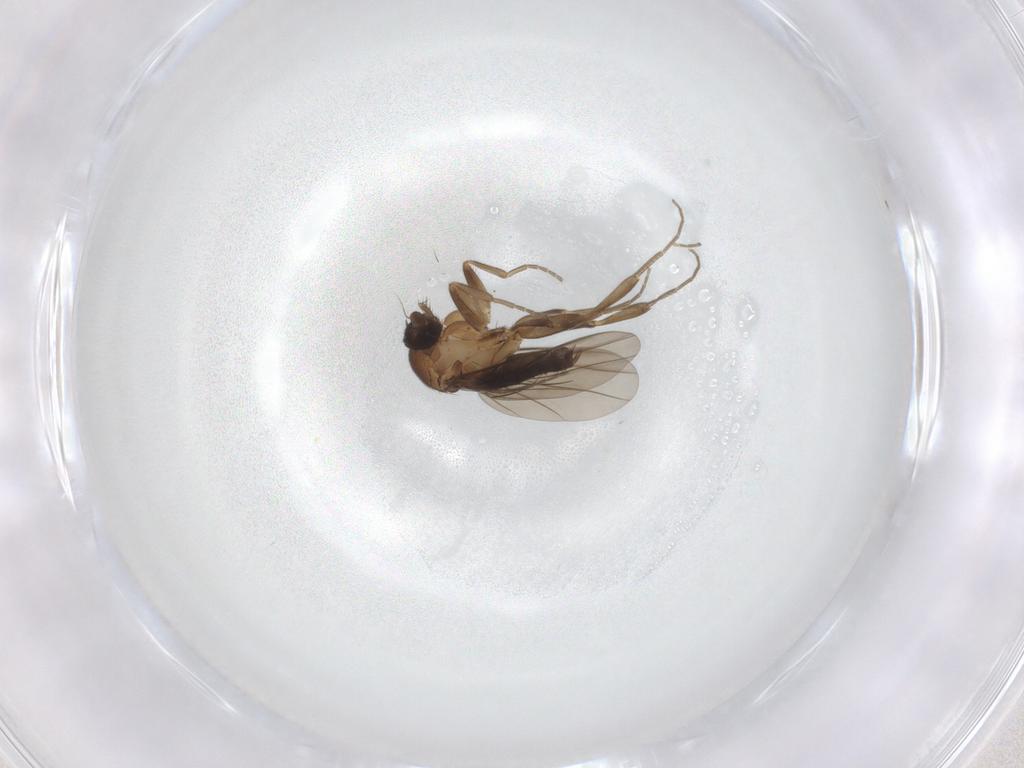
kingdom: Animalia
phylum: Arthropoda
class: Insecta
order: Diptera
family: Phoridae
